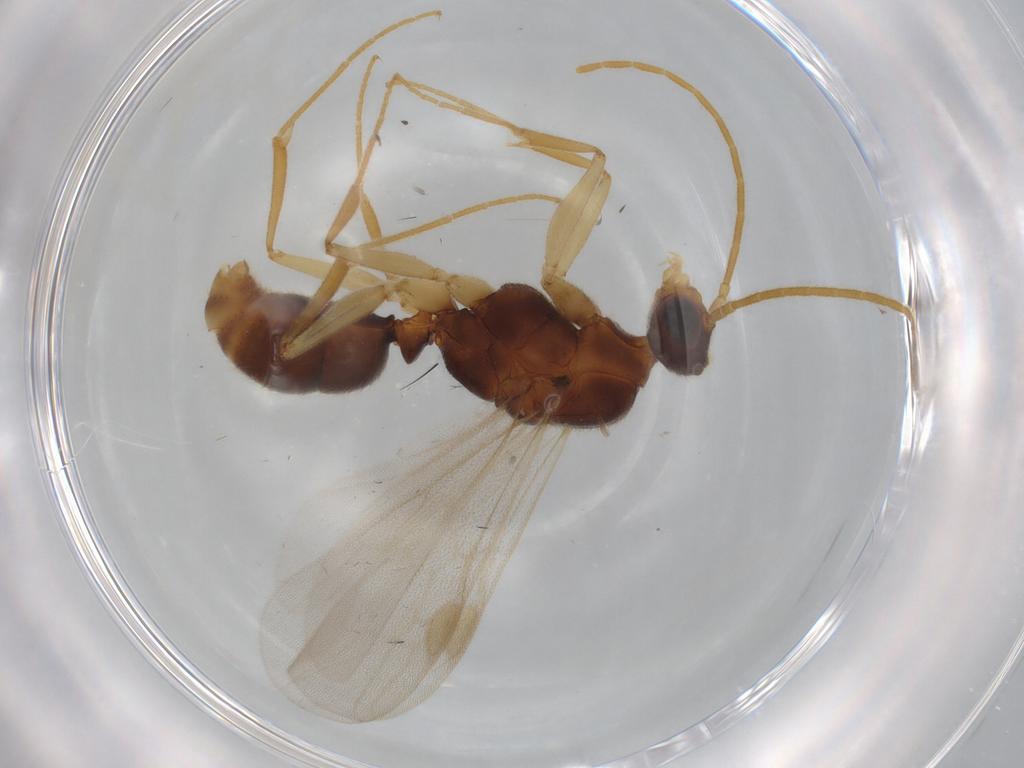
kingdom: Animalia
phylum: Arthropoda
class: Insecta
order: Hymenoptera
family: Formicidae
